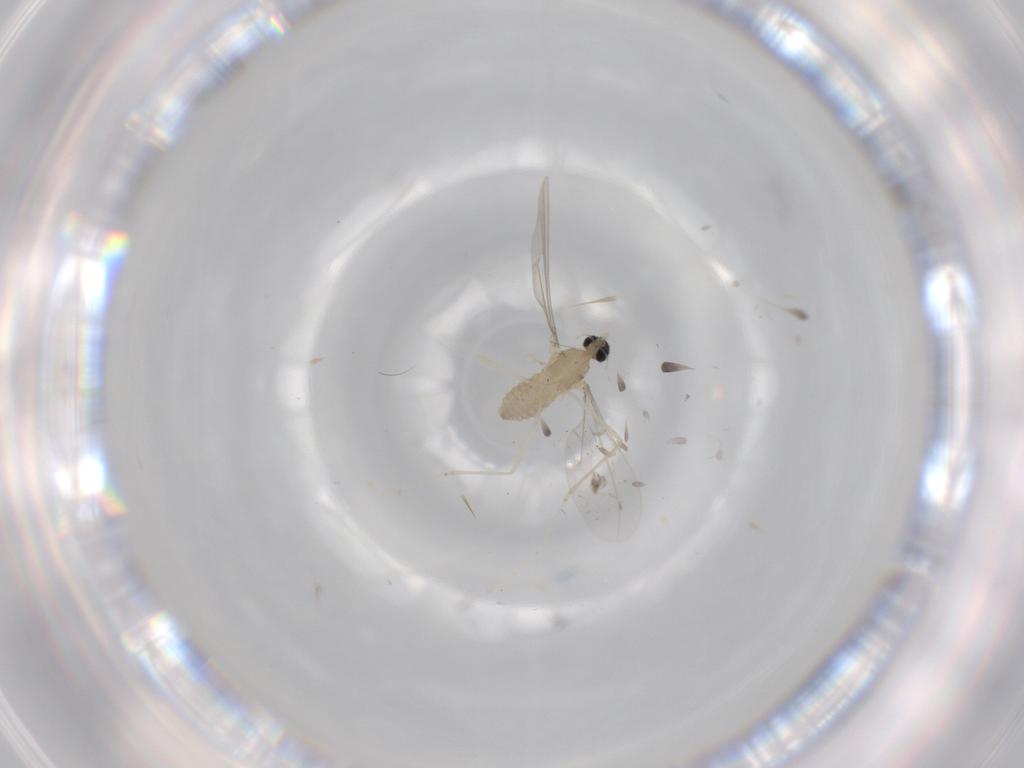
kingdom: Animalia
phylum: Arthropoda
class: Insecta
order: Diptera
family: Cecidomyiidae
